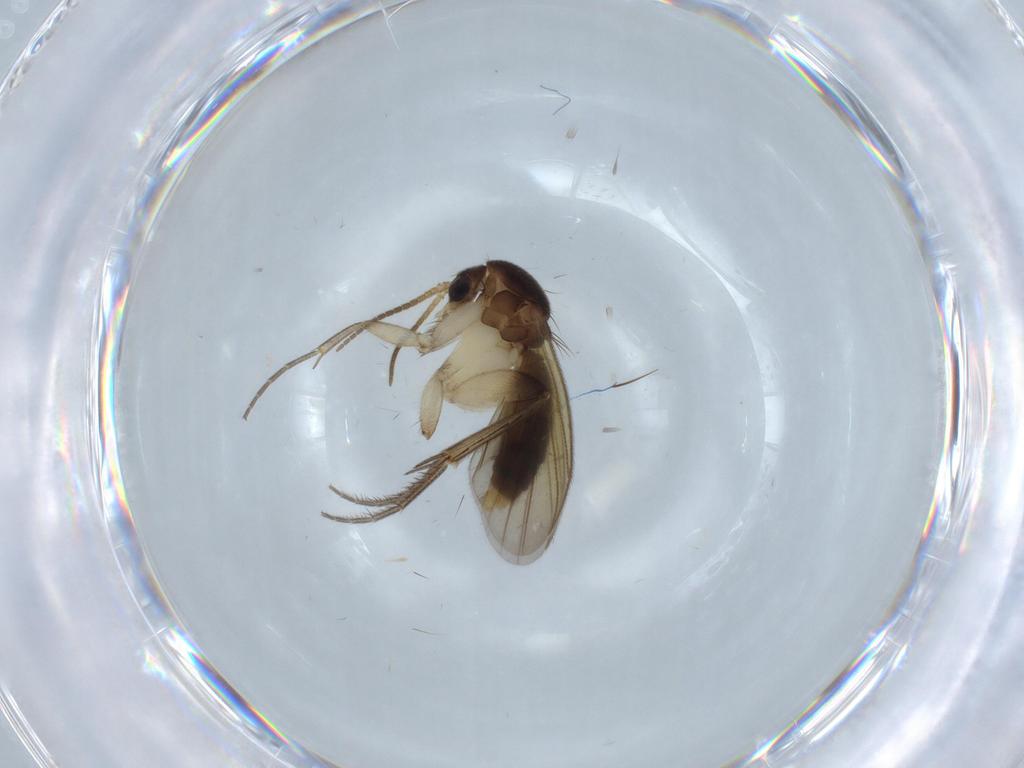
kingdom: Animalia
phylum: Arthropoda
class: Insecta
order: Diptera
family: Mycetophilidae
